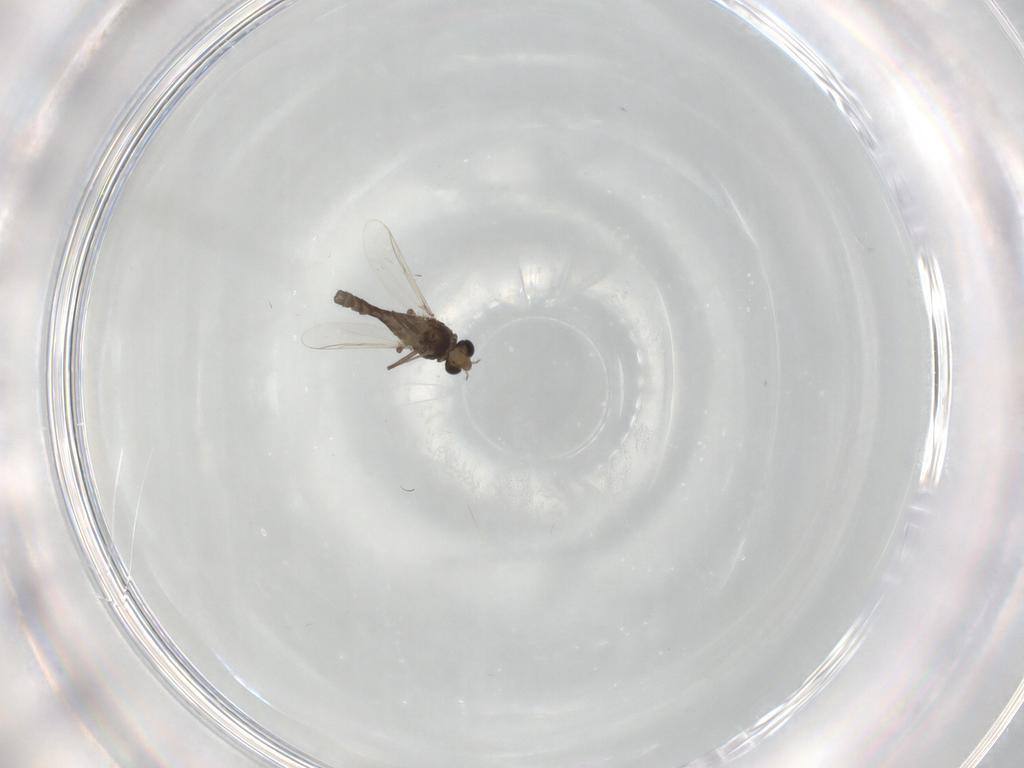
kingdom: Animalia
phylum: Arthropoda
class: Insecta
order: Diptera
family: Chironomidae
